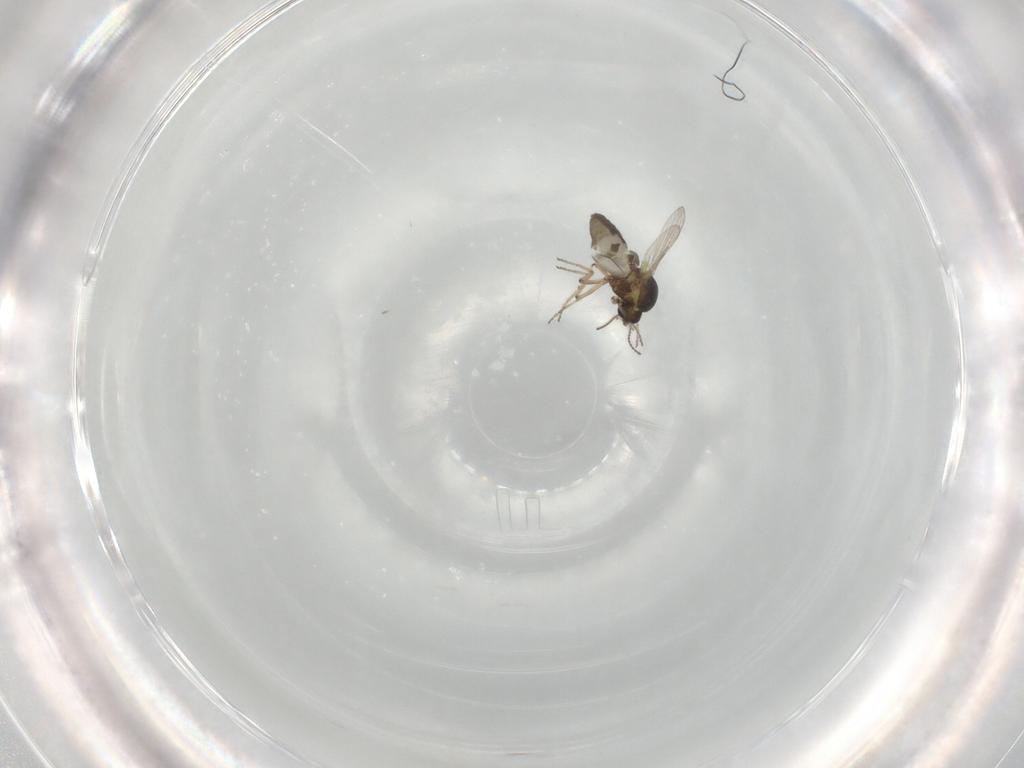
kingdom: Animalia
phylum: Arthropoda
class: Insecta
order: Diptera
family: Ceratopogonidae
